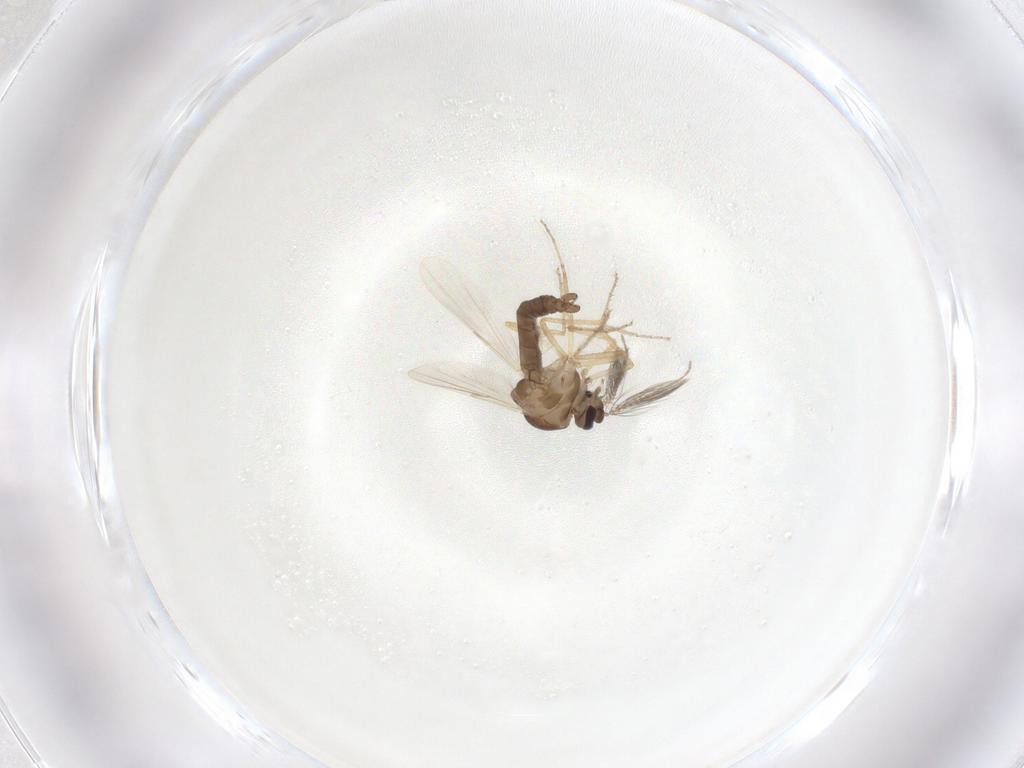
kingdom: Animalia
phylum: Arthropoda
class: Insecta
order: Diptera
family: Ceratopogonidae
